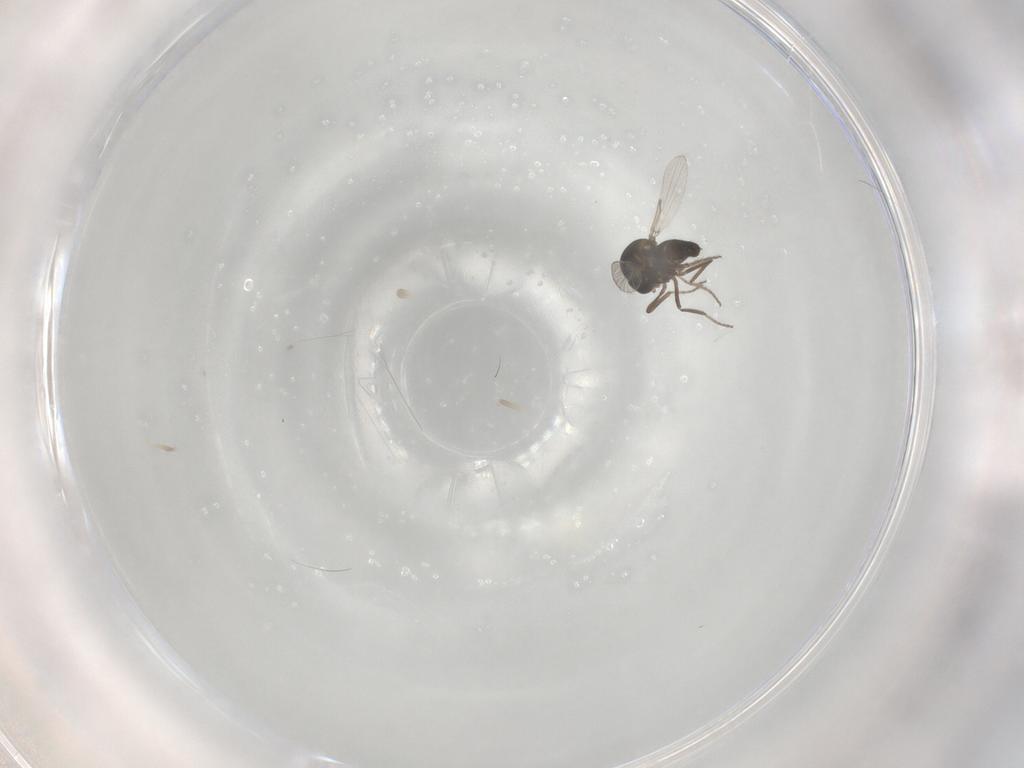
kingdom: Animalia
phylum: Arthropoda
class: Insecta
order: Diptera
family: Ceratopogonidae
